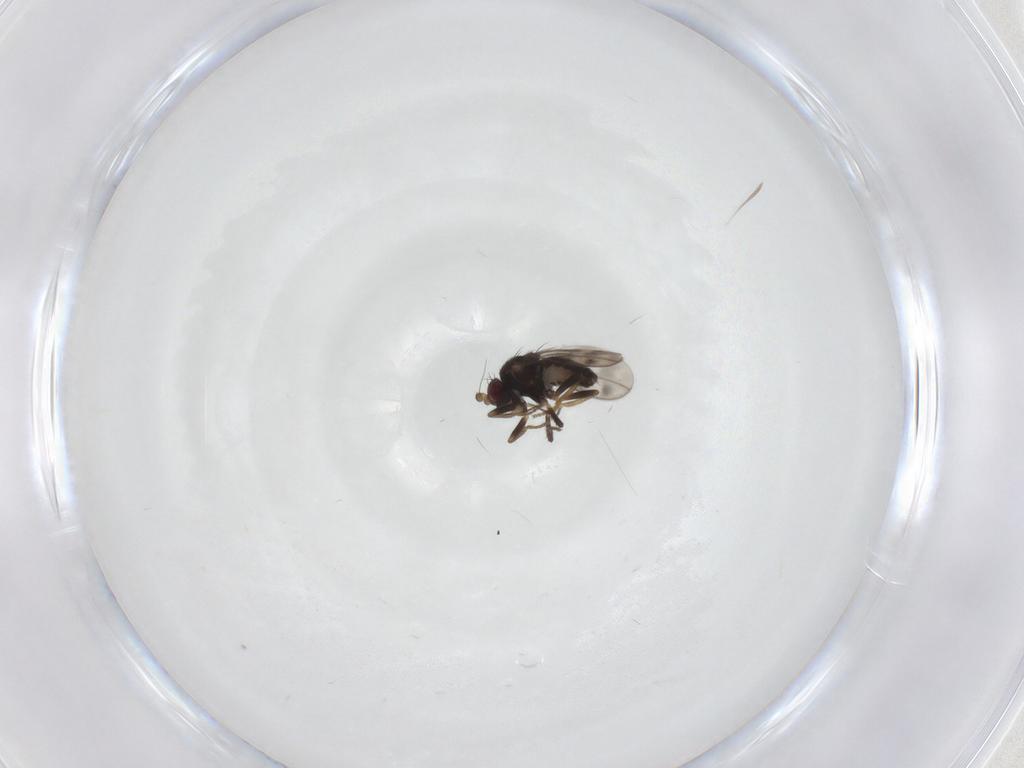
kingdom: Animalia
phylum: Arthropoda
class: Insecta
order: Diptera
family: Sphaeroceridae
